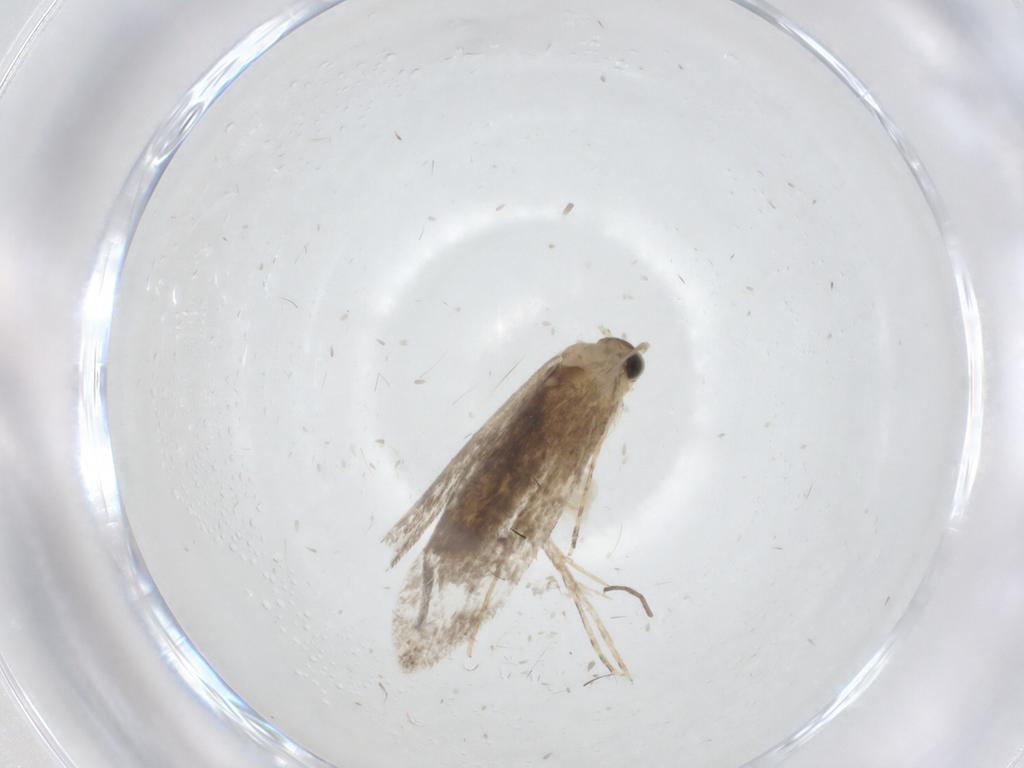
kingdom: Animalia
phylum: Arthropoda
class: Insecta
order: Lepidoptera
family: Tineidae
